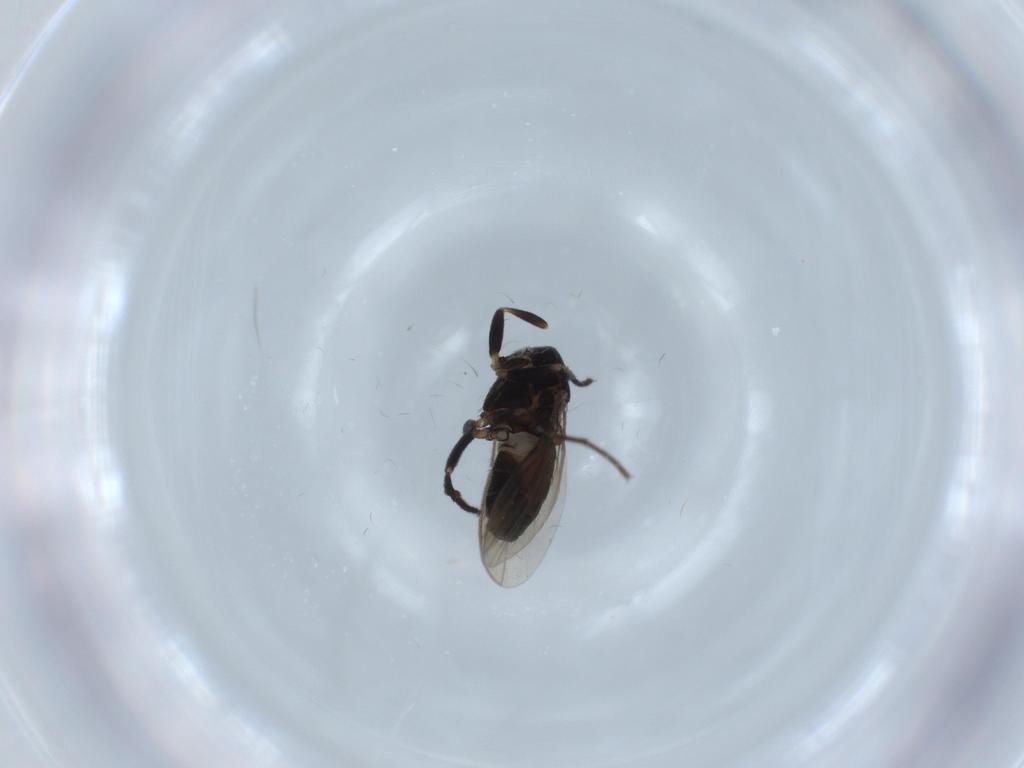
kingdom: Animalia
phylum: Arthropoda
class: Insecta
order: Diptera
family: Sphaeroceridae
